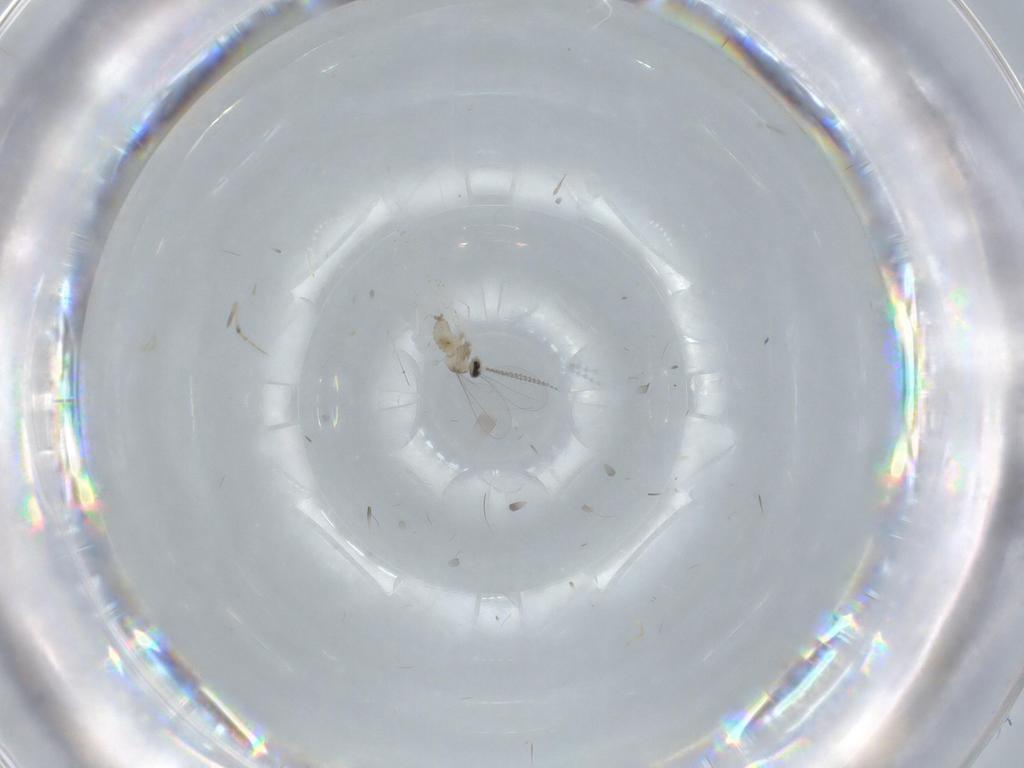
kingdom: Animalia
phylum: Arthropoda
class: Insecta
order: Diptera
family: Cecidomyiidae
